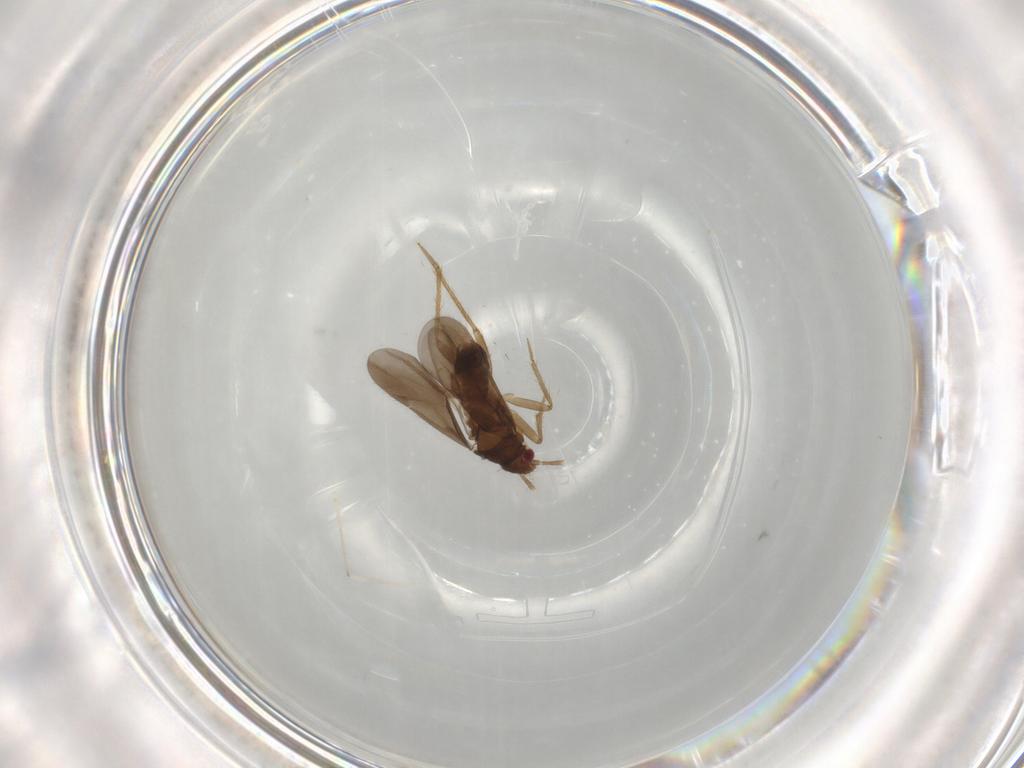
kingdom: Animalia
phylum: Arthropoda
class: Insecta
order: Hemiptera
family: Ceratocombidae
